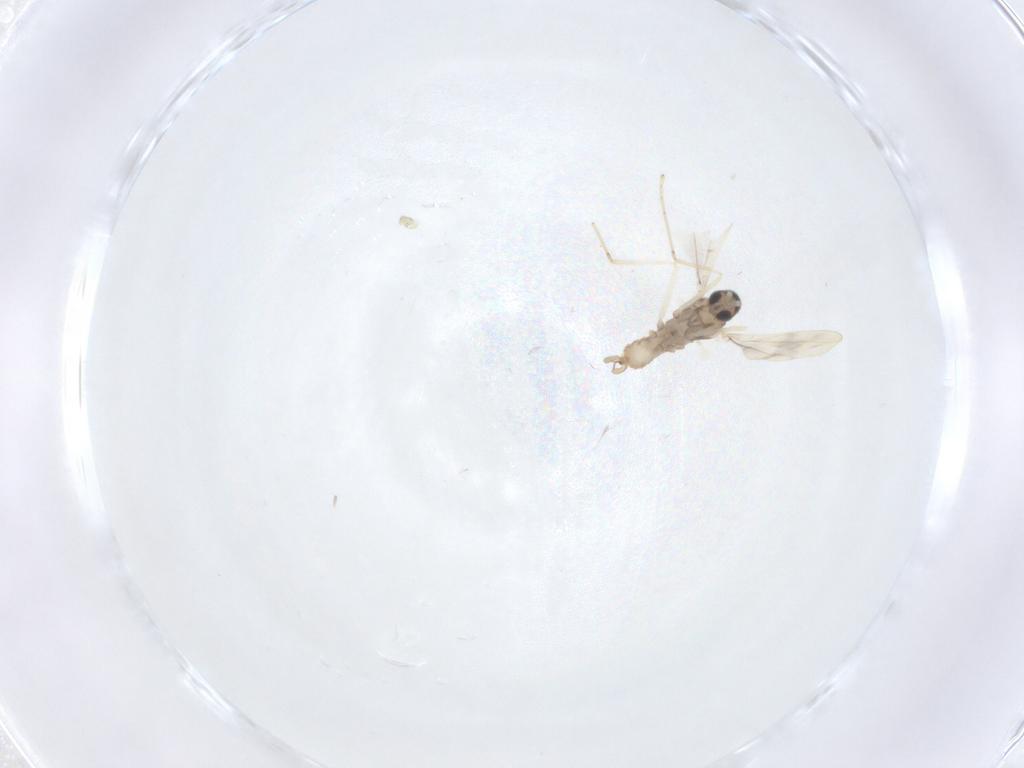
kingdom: Animalia
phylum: Arthropoda
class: Insecta
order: Diptera
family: Cecidomyiidae
